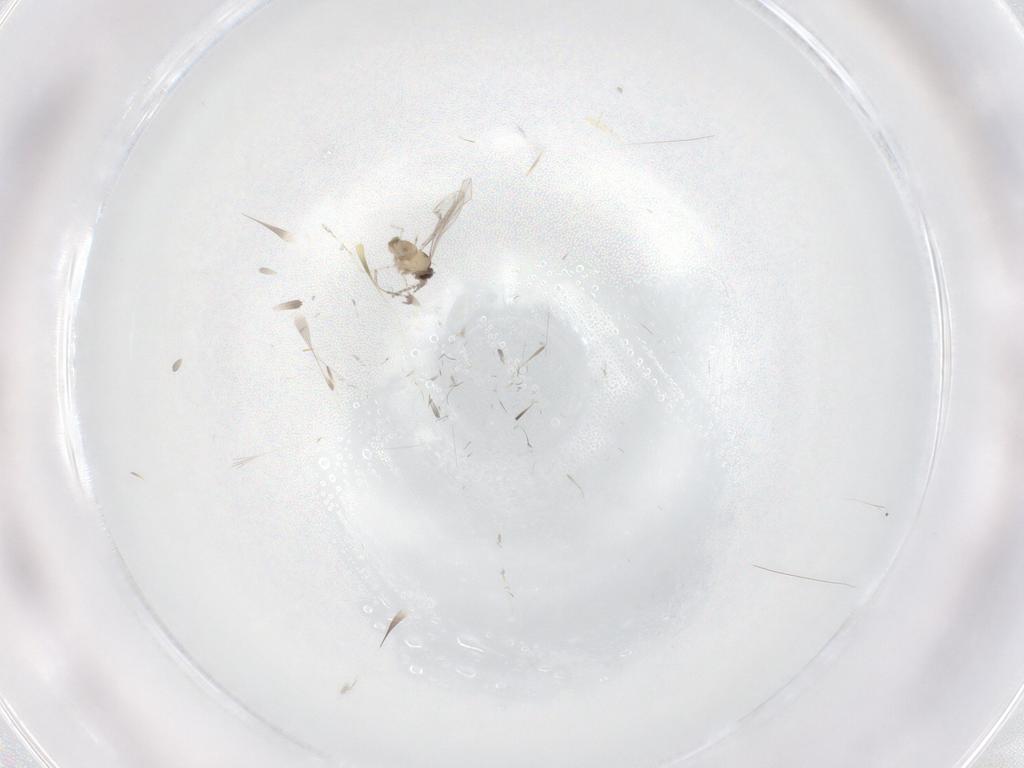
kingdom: Animalia
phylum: Arthropoda
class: Insecta
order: Diptera
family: Cecidomyiidae
